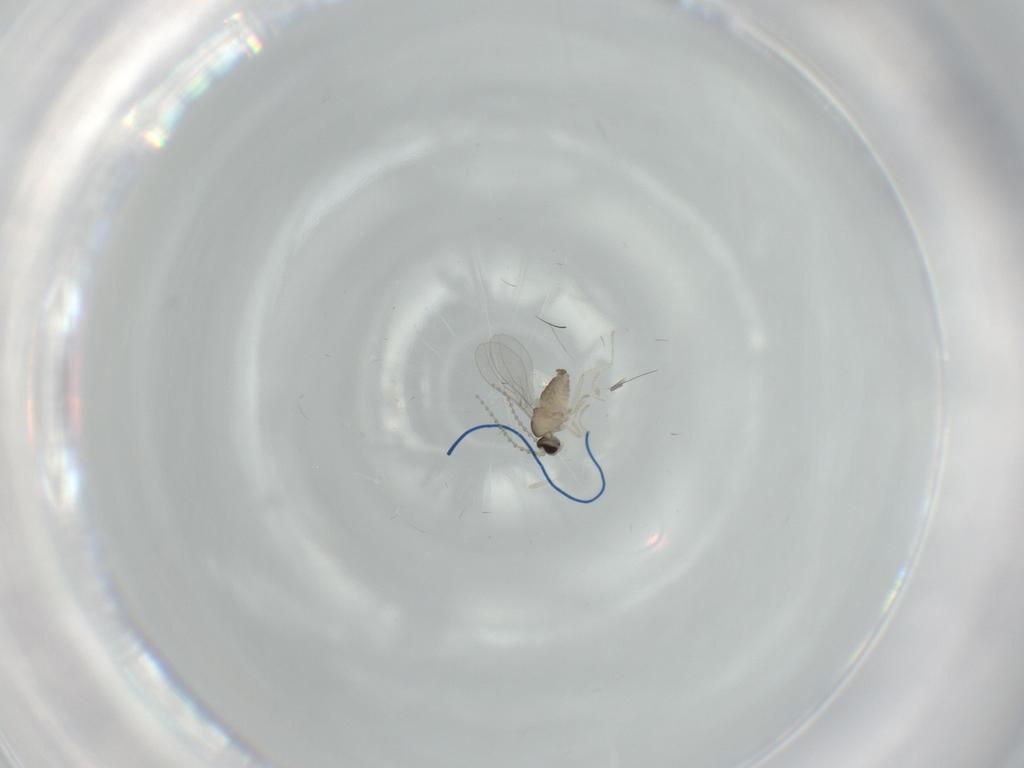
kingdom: Animalia
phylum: Arthropoda
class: Insecta
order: Diptera
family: Cecidomyiidae
